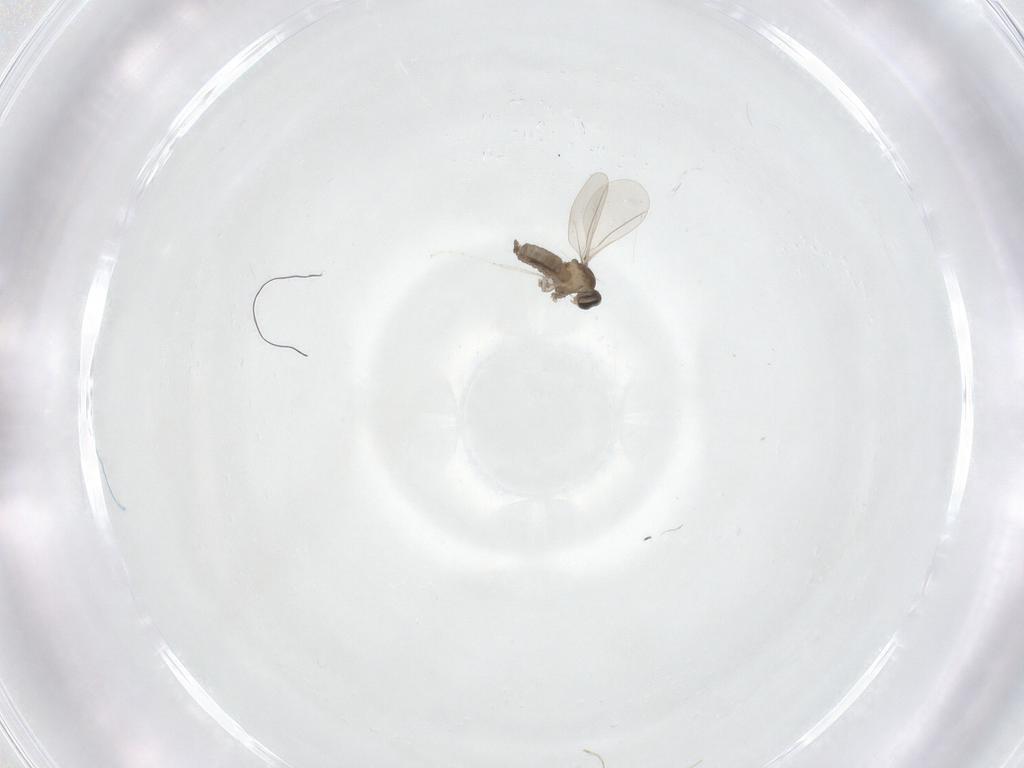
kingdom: Animalia
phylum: Arthropoda
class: Insecta
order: Diptera
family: Cecidomyiidae
